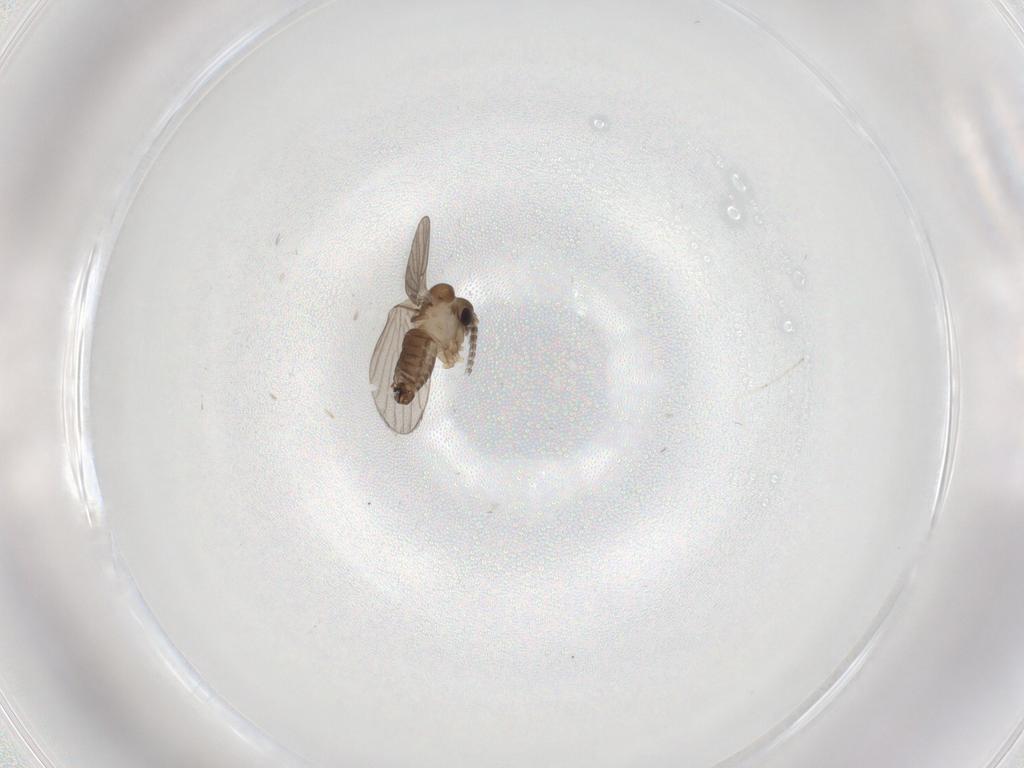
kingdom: Animalia
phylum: Arthropoda
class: Insecta
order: Diptera
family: Cecidomyiidae
